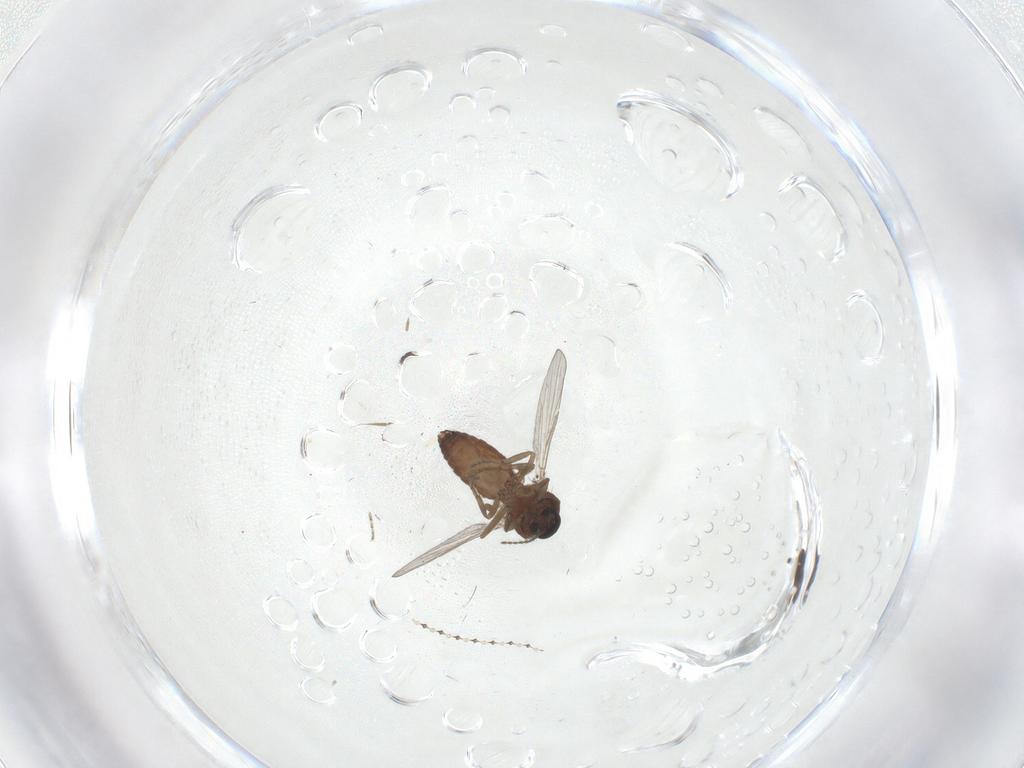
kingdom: Animalia
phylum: Arthropoda
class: Insecta
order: Diptera
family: Ceratopogonidae
